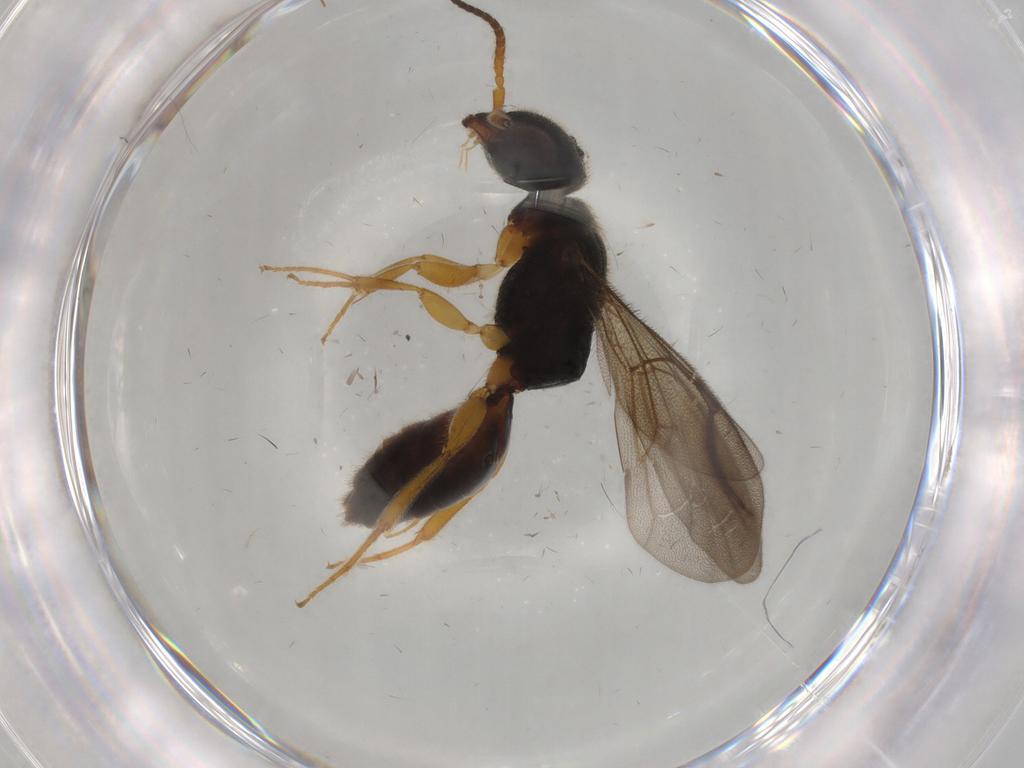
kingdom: Animalia
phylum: Arthropoda
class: Insecta
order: Hymenoptera
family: Bethylidae
